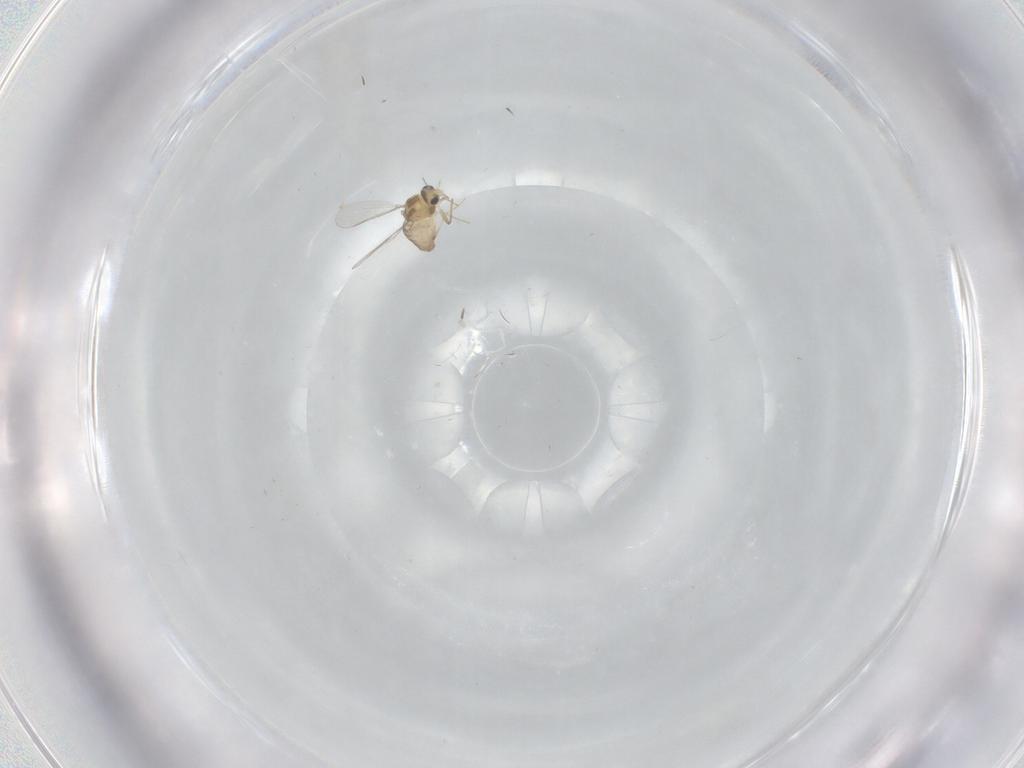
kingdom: Animalia
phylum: Arthropoda
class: Insecta
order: Diptera
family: Chironomidae
